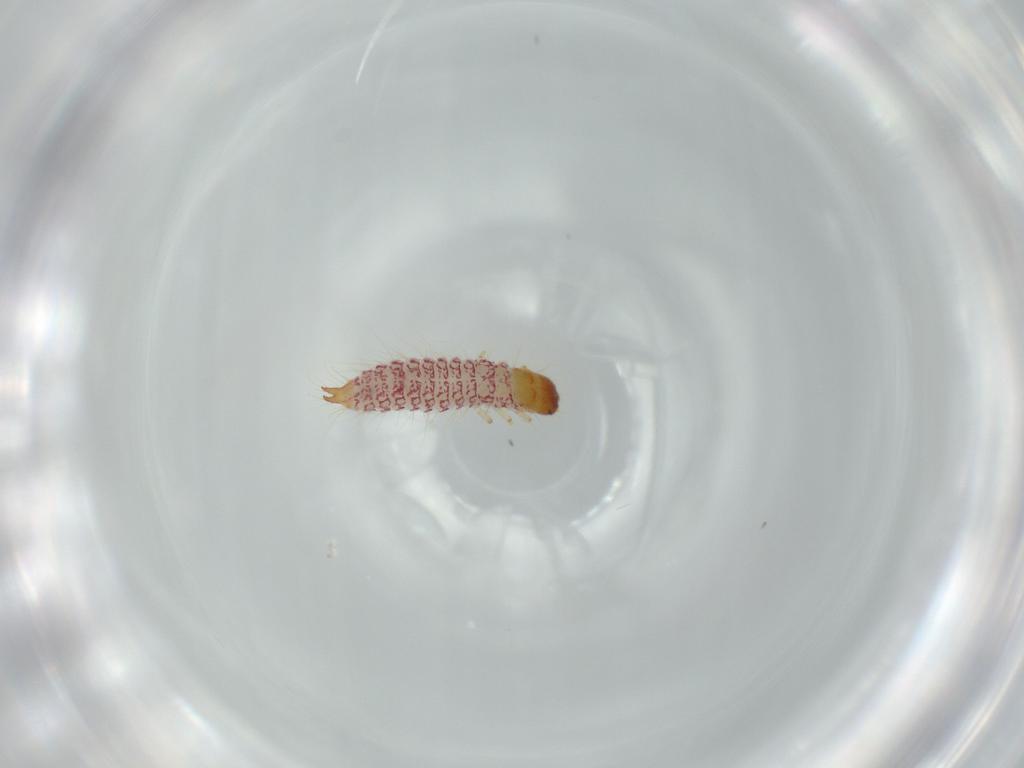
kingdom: Animalia
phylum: Arthropoda
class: Insecta
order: Coleoptera
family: Cleridae
